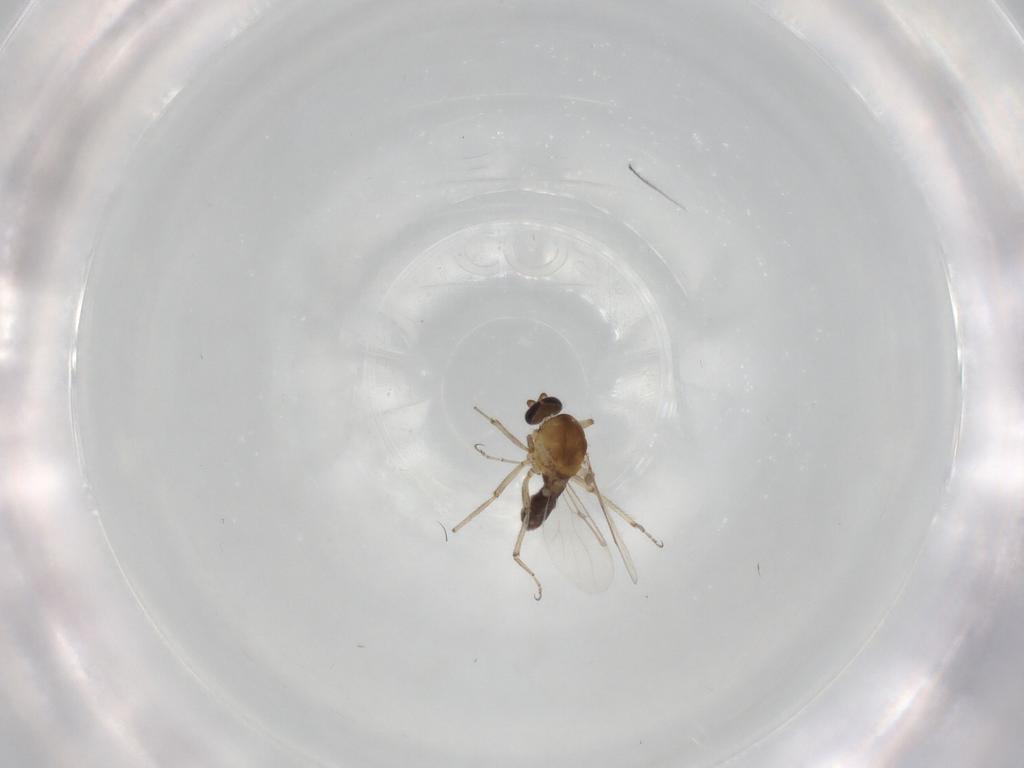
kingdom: Animalia
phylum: Arthropoda
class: Insecta
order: Diptera
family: Ceratopogonidae
